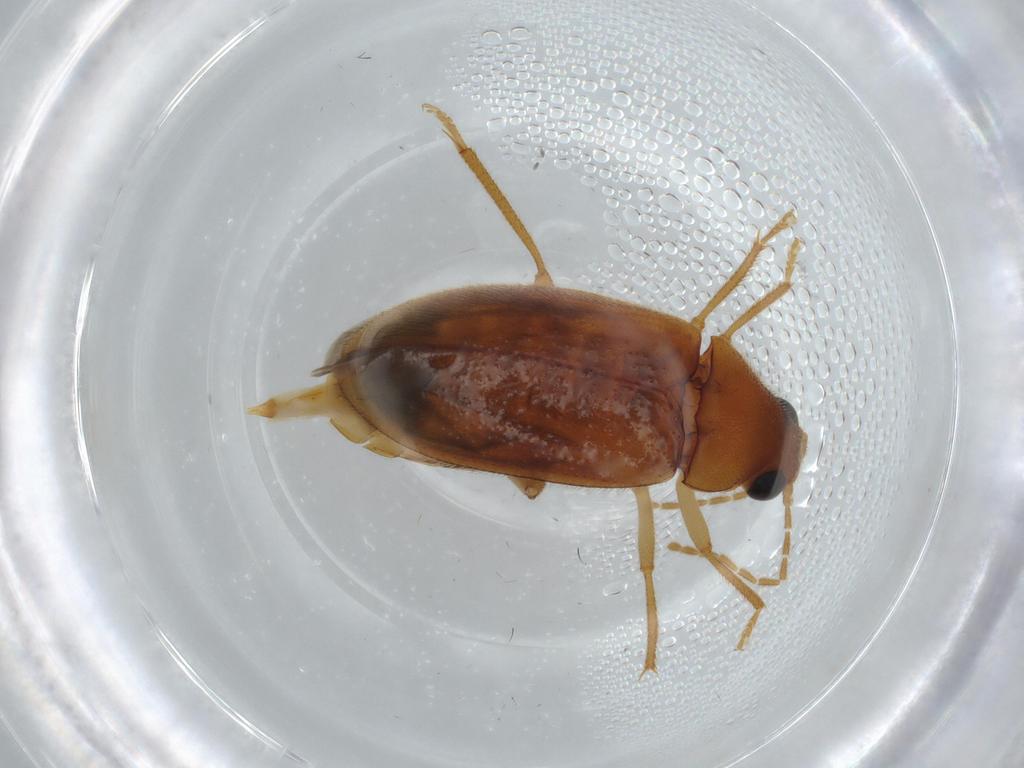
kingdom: Animalia
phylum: Arthropoda
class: Insecta
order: Coleoptera
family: Ptilodactylidae
